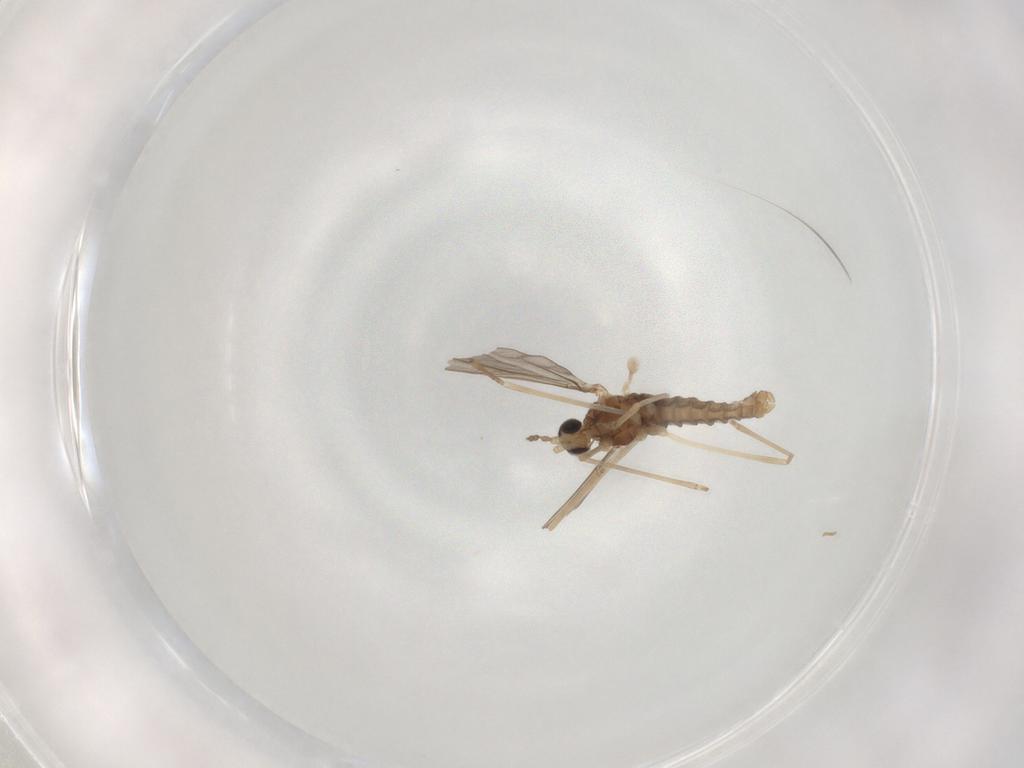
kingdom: Animalia
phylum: Arthropoda
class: Insecta
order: Diptera
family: Cecidomyiidae
